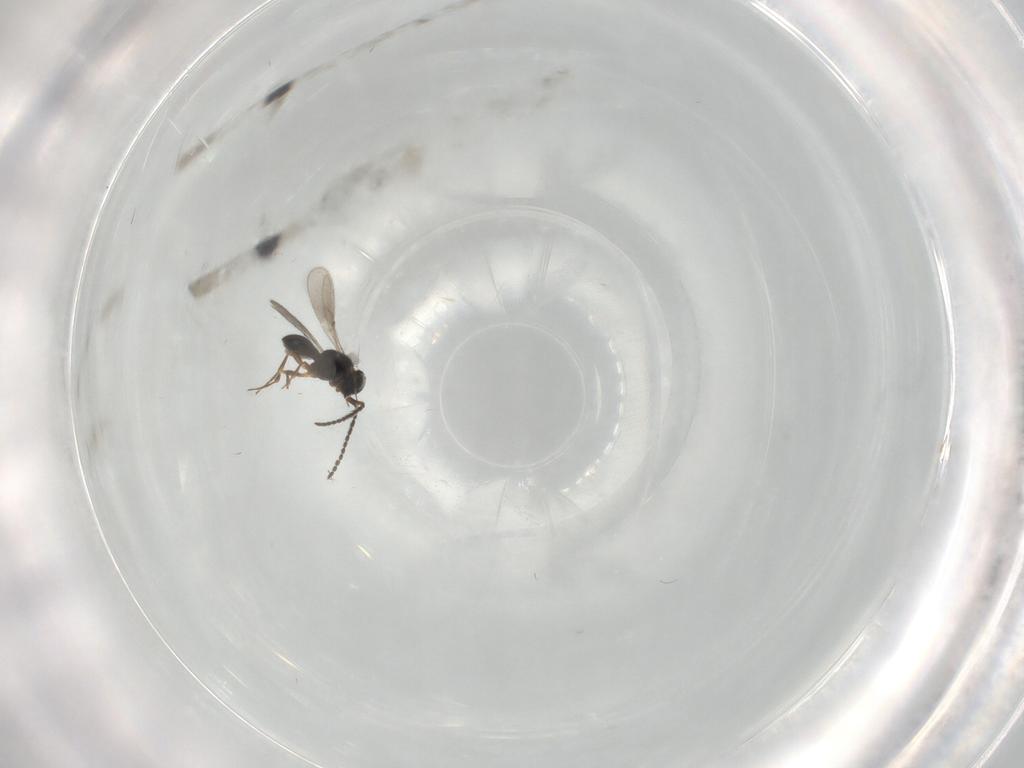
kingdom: Animalia
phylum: Arthropoda
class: Insecta
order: Hymenoptera
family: Scelionidae
